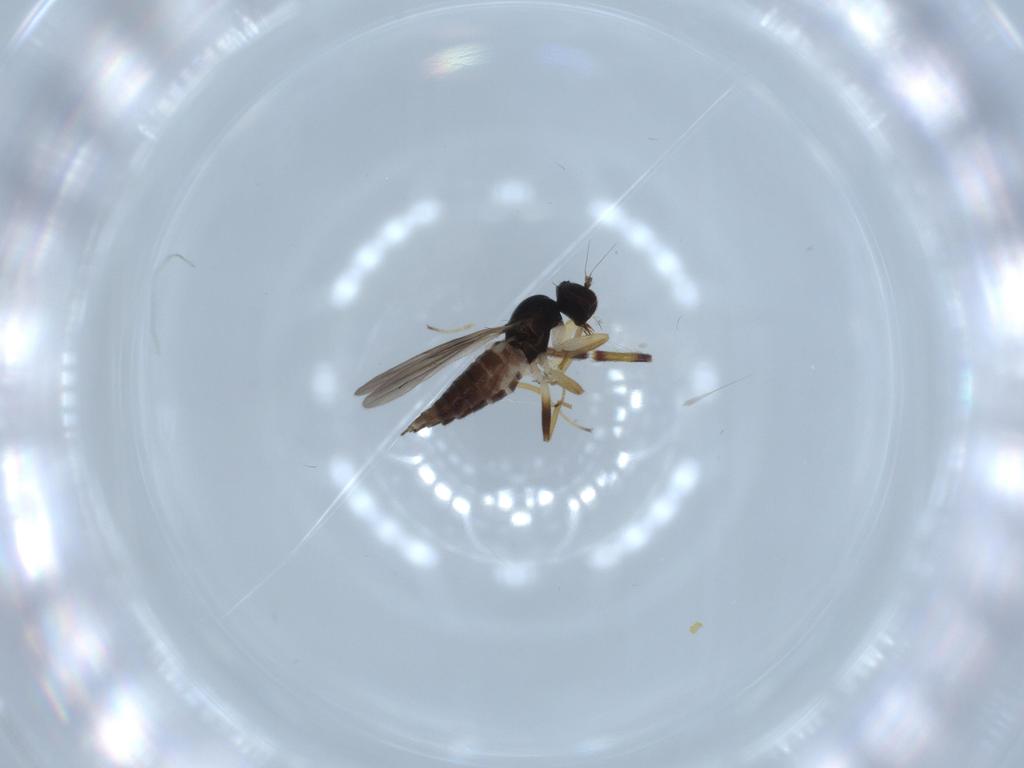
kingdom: Animalia
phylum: Arthropoda
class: Insecta
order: Diptera
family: Hybotidae
